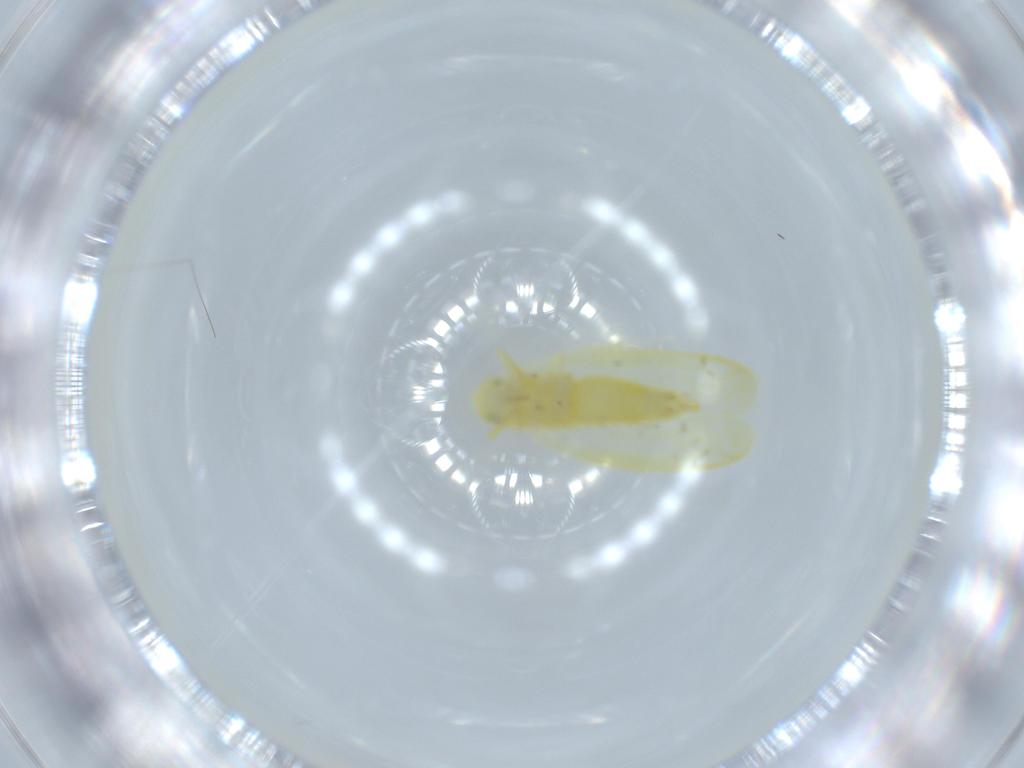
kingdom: Animalia
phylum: Arthropoda
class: Insecta
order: Hemiptera
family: Cicadellidae
